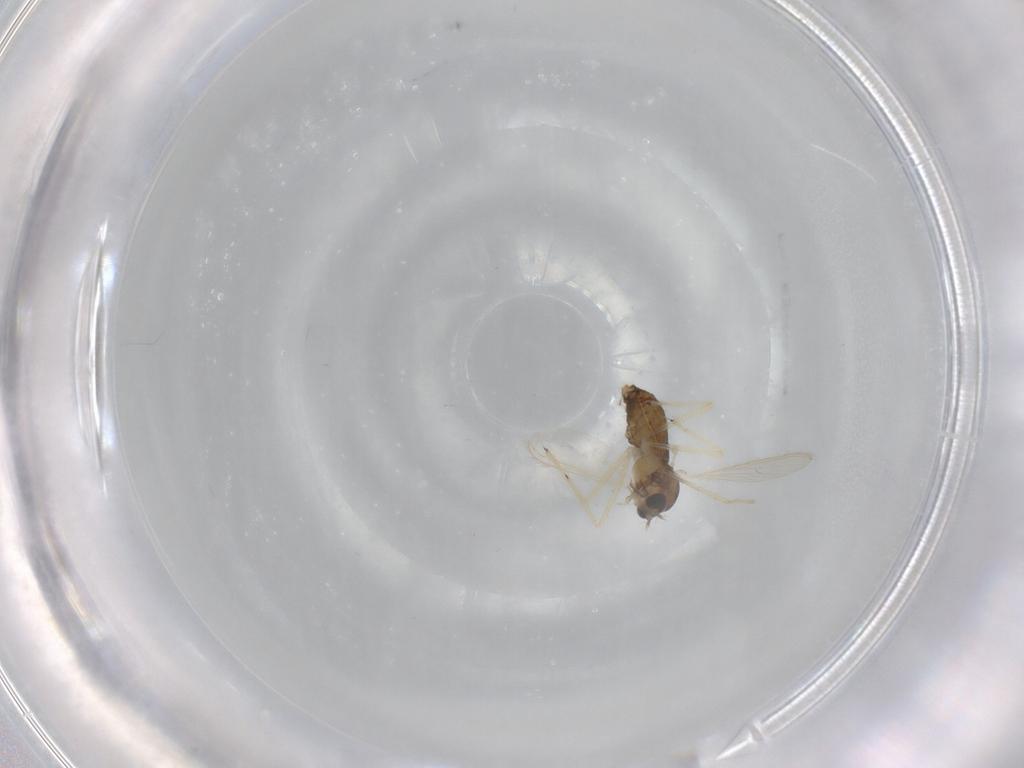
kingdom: Animalia
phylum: Arthropoda
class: Insecta
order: Diptera
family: Chironomidae
